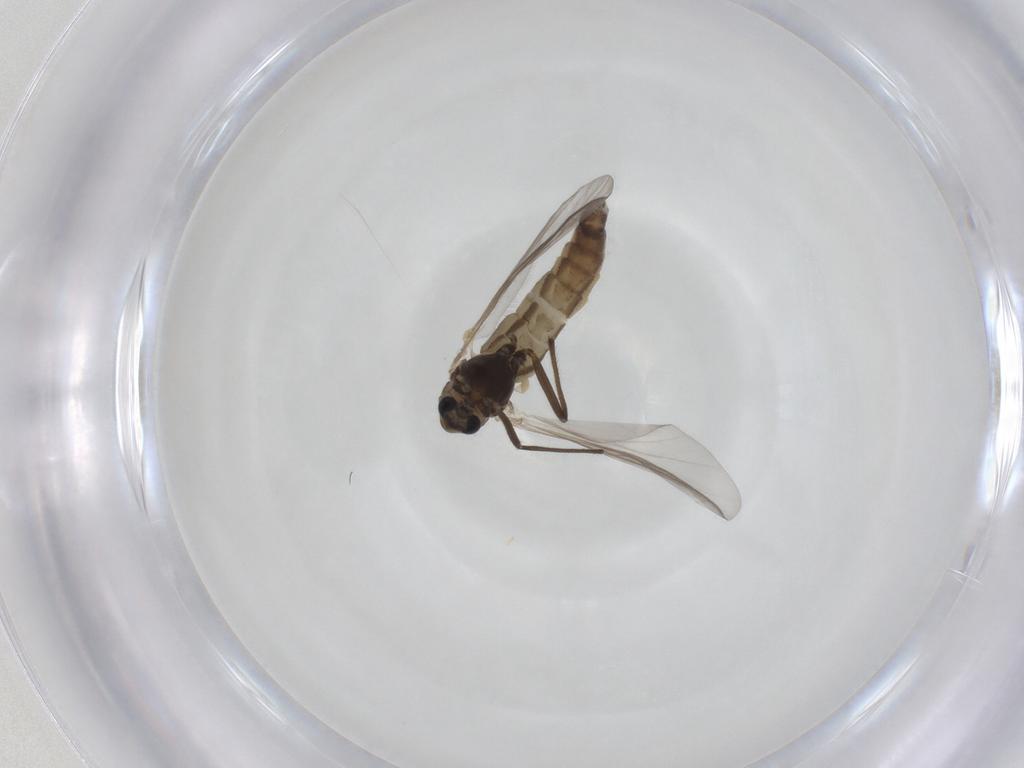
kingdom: Animalia
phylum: Arthropoda
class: Insecta
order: Diptera
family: Chironomidae
